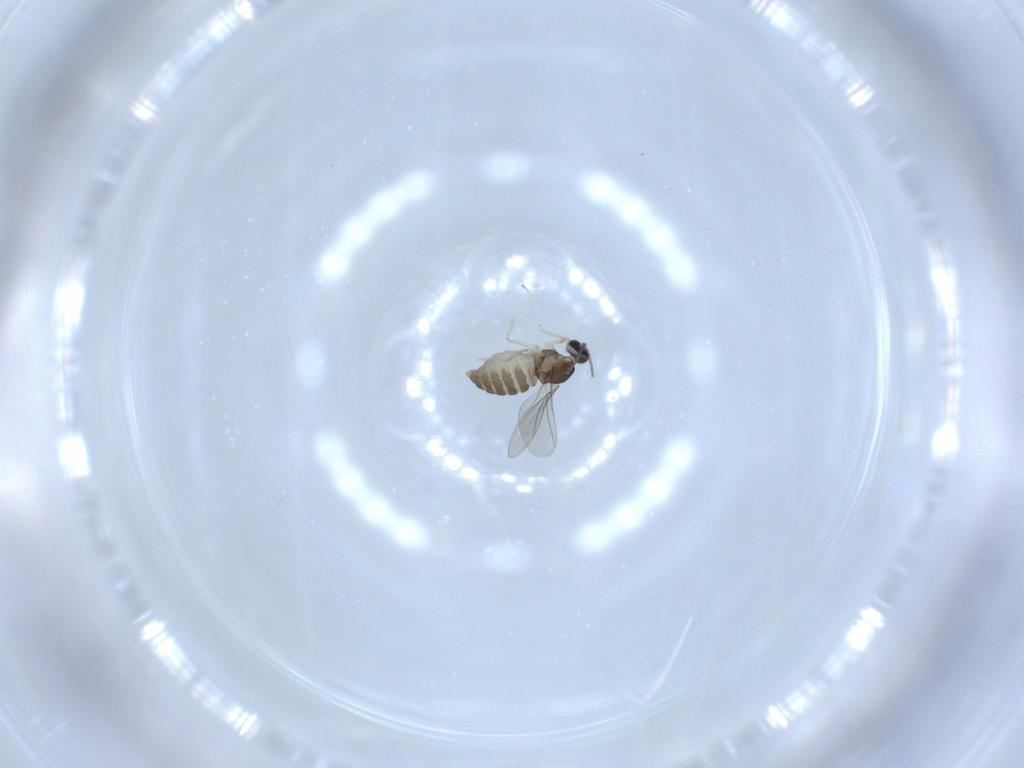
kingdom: Animalia
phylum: Arthropoda
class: Insecta
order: Diptera
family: Cecidomyiidae
